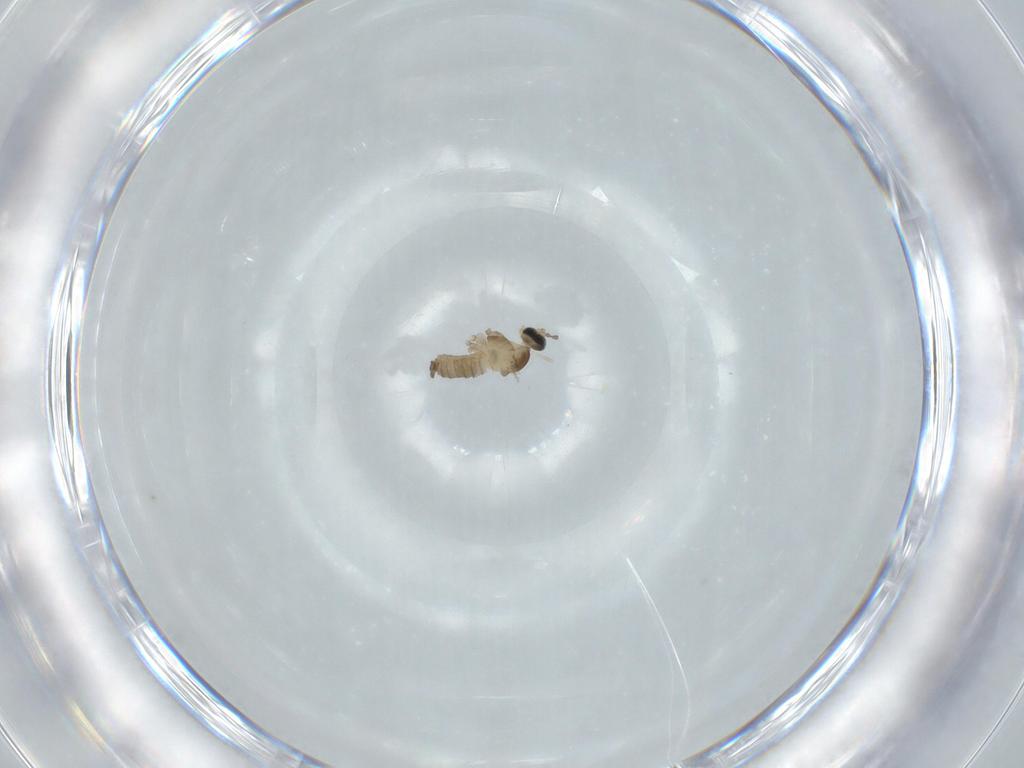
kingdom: Animalia
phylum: Arthropoda
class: Insecta
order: Diptera
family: Cecidomyiidae
